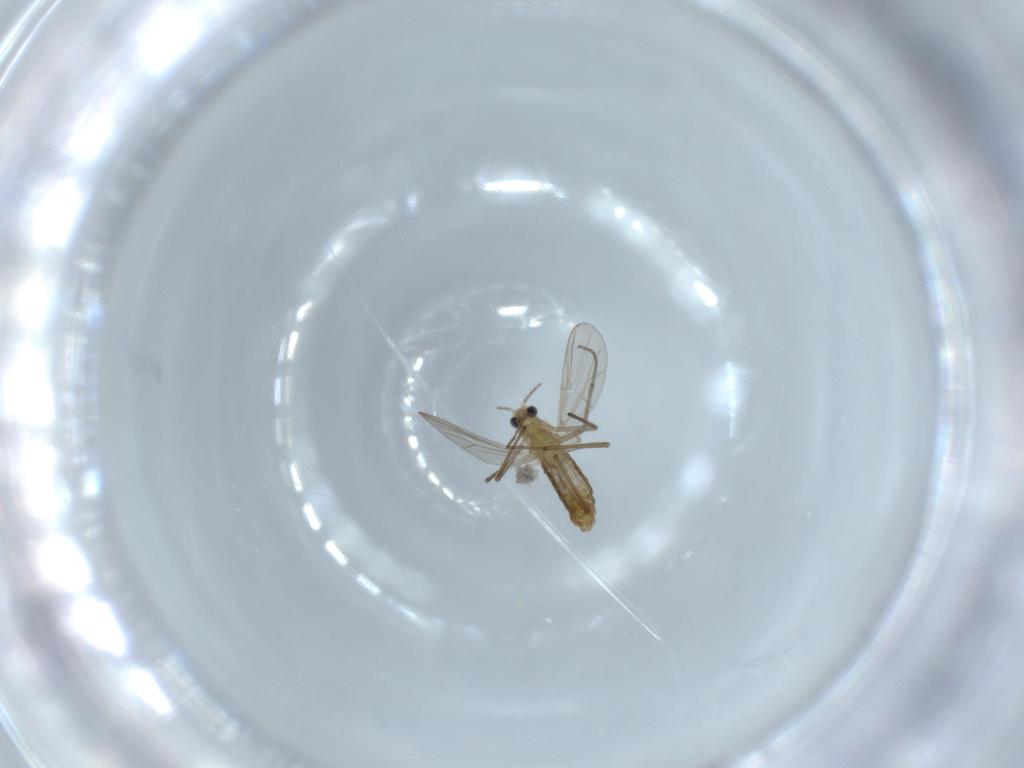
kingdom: Animalia
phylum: Arthropoda
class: Insecta
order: Diptera
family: Chironomidae
